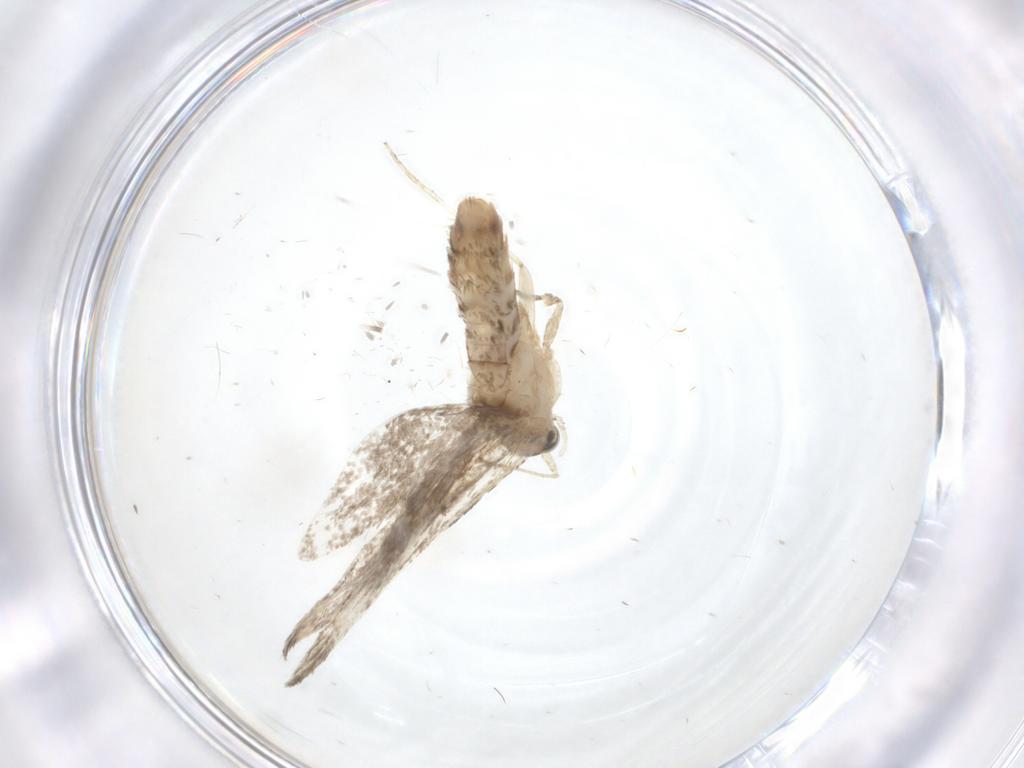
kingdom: Animalia
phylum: Arthropoda
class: Insecta
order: Lepidoptera
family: Tineidae
